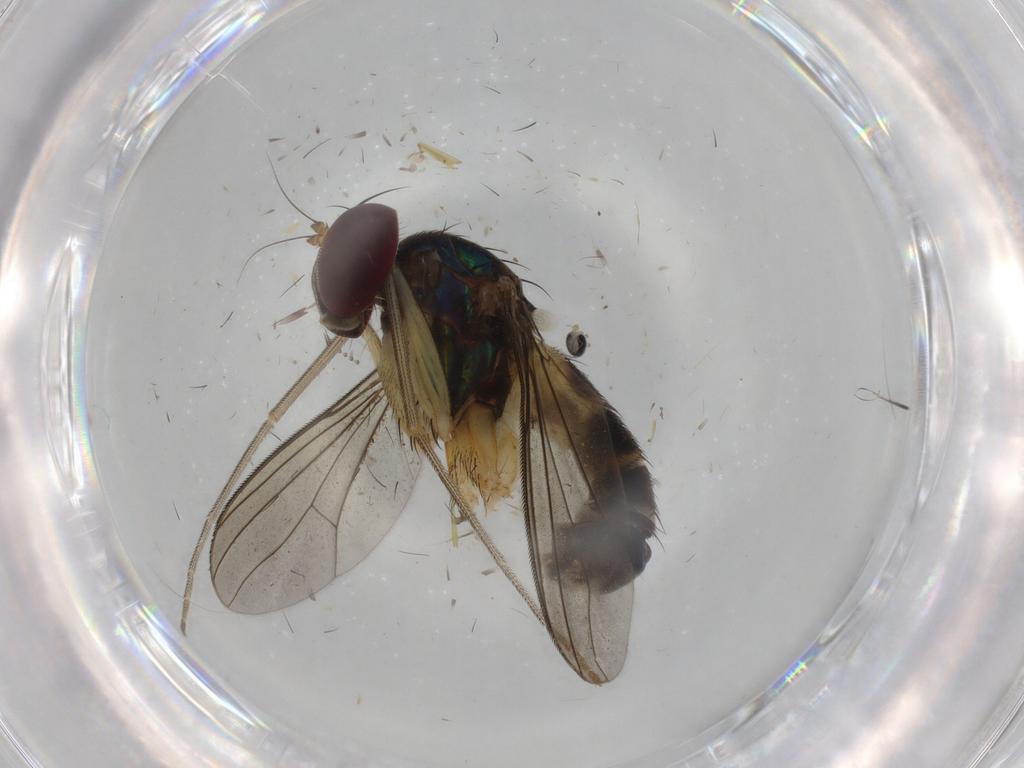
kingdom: Animalia
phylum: Arthropoda
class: Insecta
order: Diptera
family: Dolichopodidae
